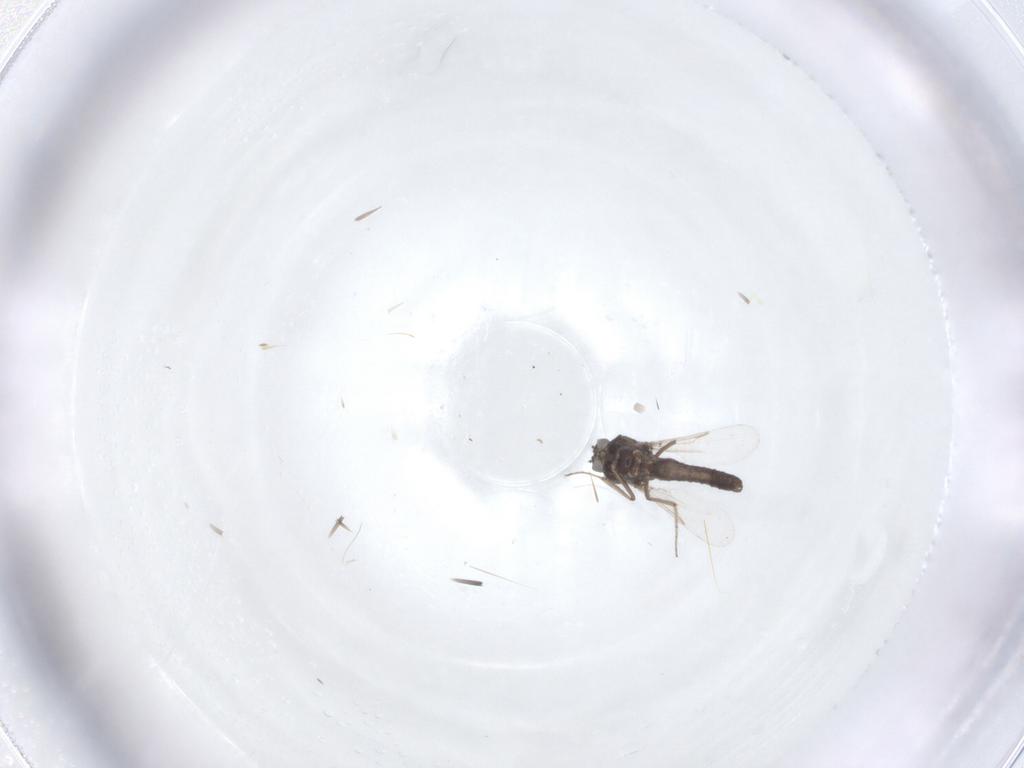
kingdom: Animalia
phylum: Arthropoda
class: Insecta
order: Diptera
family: Ceratopogonidae
